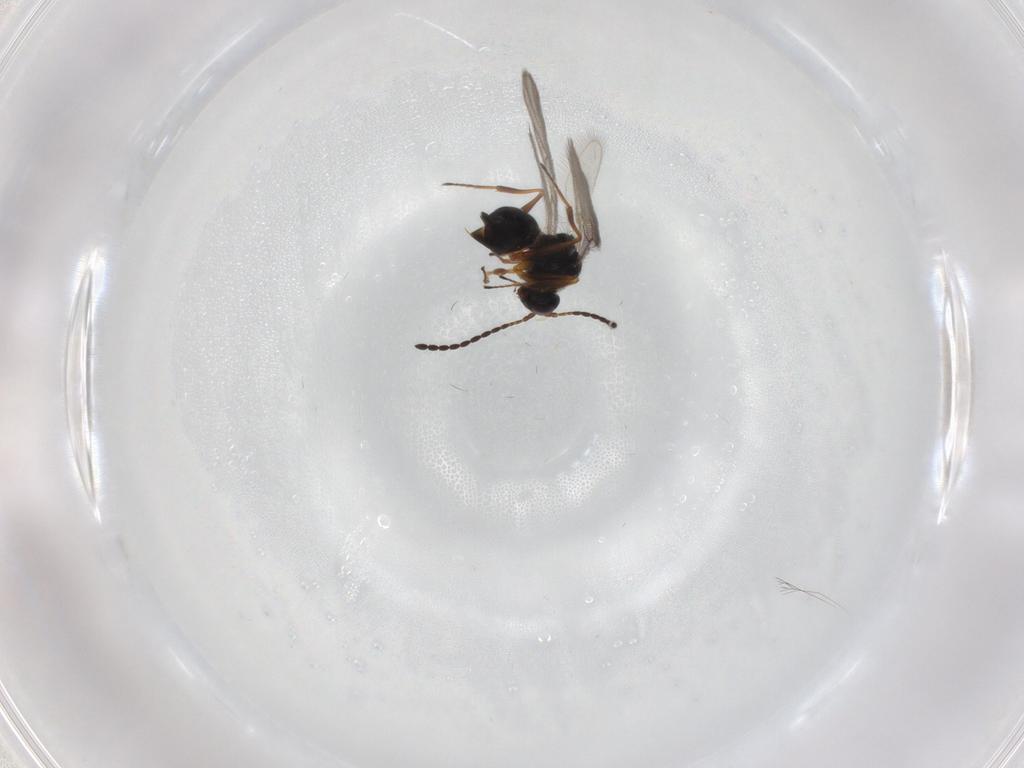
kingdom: Animalia
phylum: Arthropoda
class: Insecta
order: Hymenoptera
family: Figitidae
